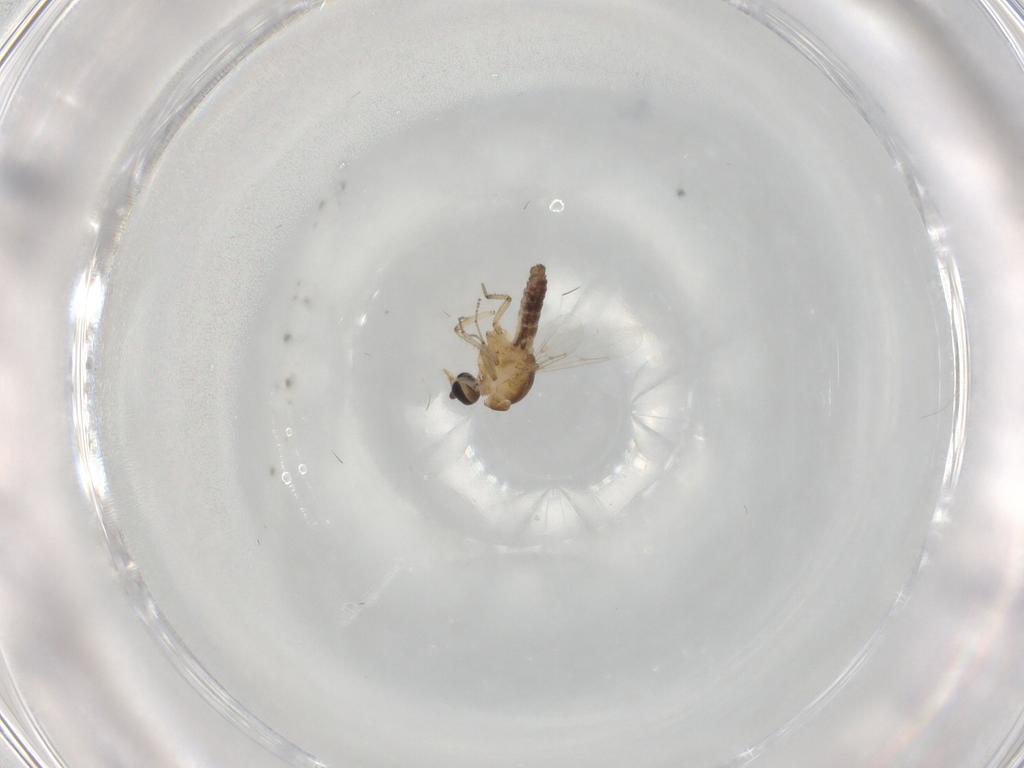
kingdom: Animalia
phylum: Arthropoda
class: Insecta
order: Diptera
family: Ceratopogonidae
